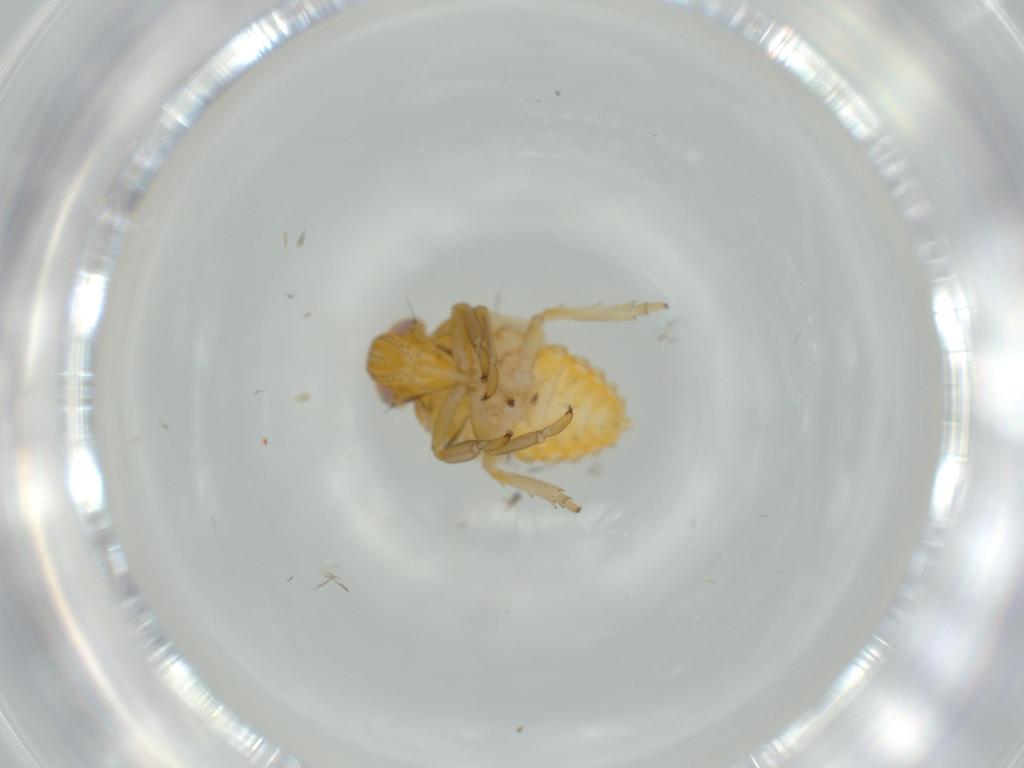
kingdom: Animalia
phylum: Arthropoda
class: Insecta
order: Hemiptera
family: Issidae
